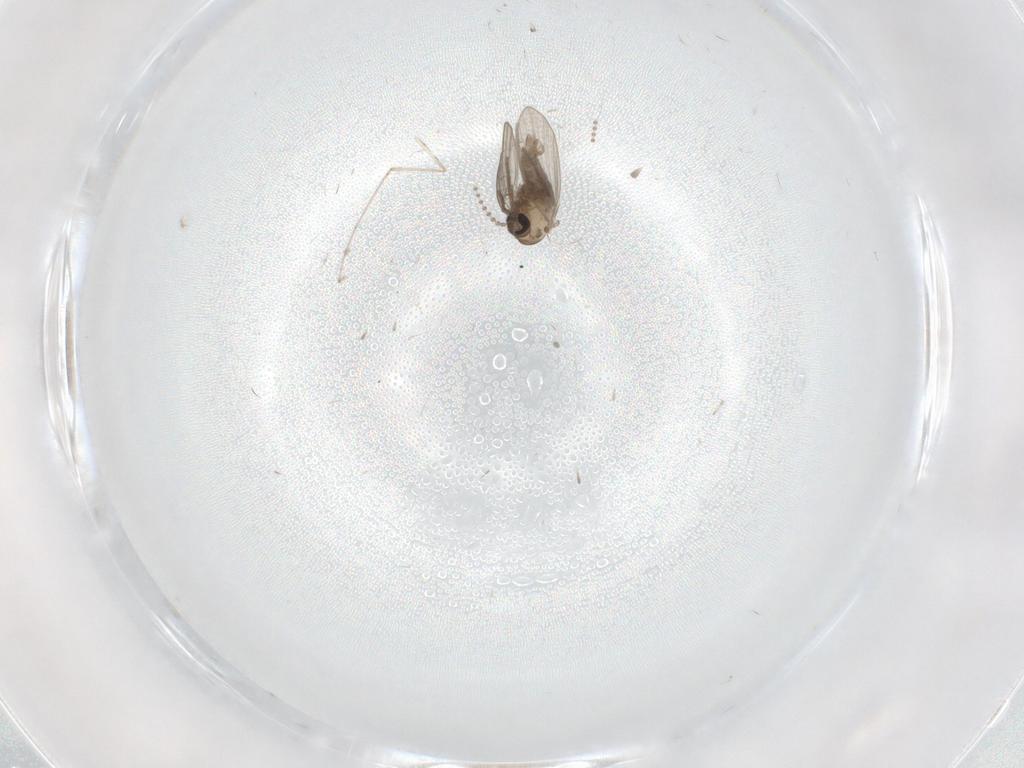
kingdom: Animalia
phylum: Arthropoda
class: Insecta
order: Diptera
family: Psychodidae
